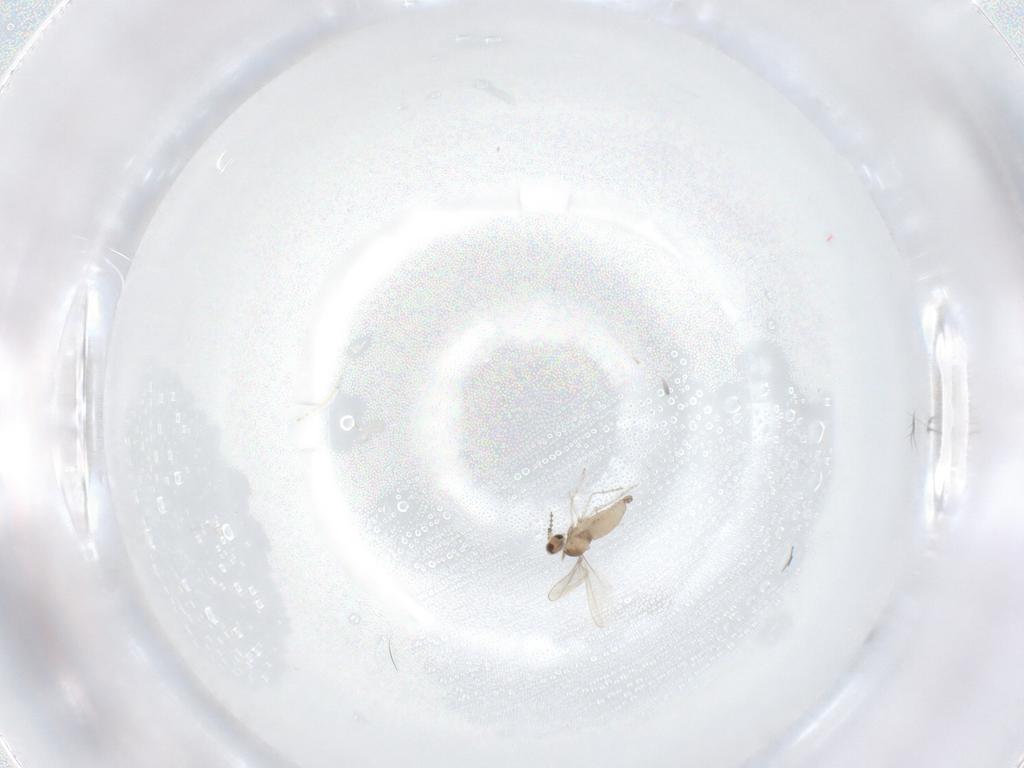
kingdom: Animalia
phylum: Arthropoda
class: Insecta
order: Diptera
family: Cecidomyiidae
